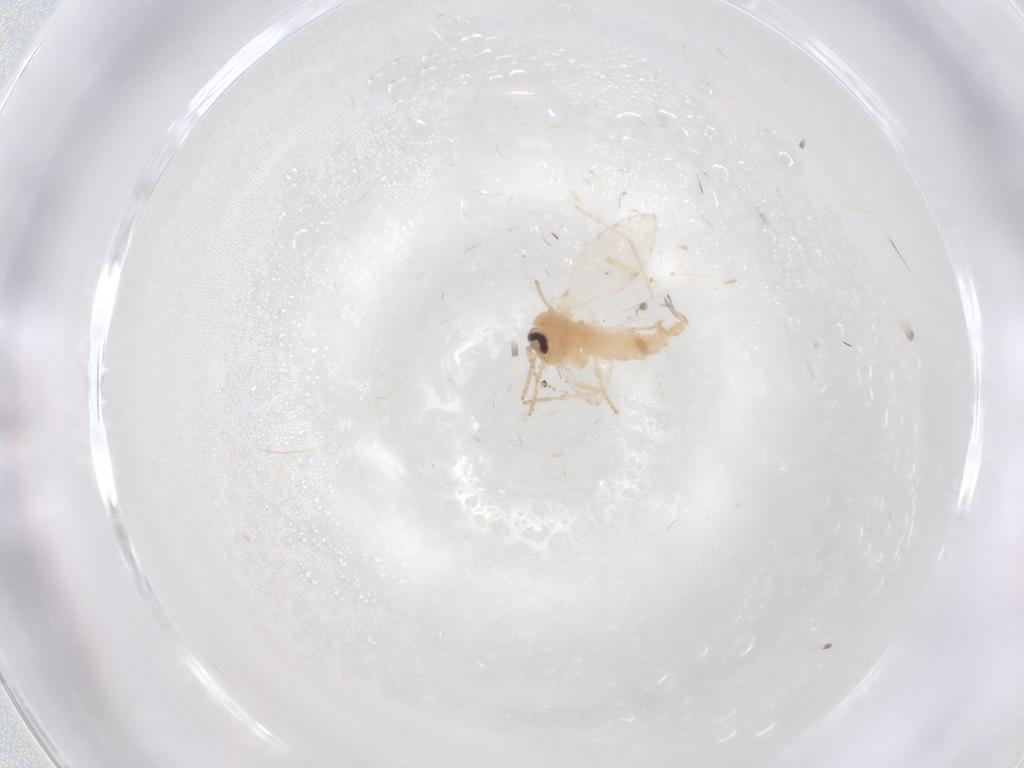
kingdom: Animalia
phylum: Arthropoda
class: Insecta
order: Diptera
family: Psychodidae
